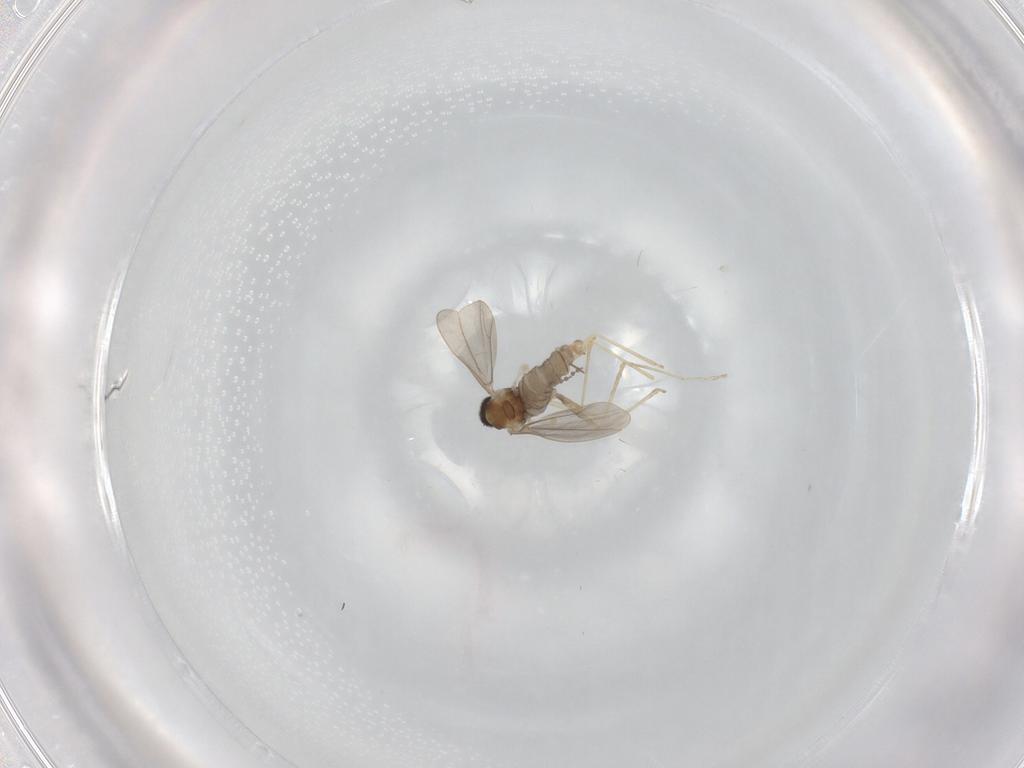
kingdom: Animalia
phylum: Arthropoda
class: Insecta
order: Diptera
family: Cecidomyiidae
